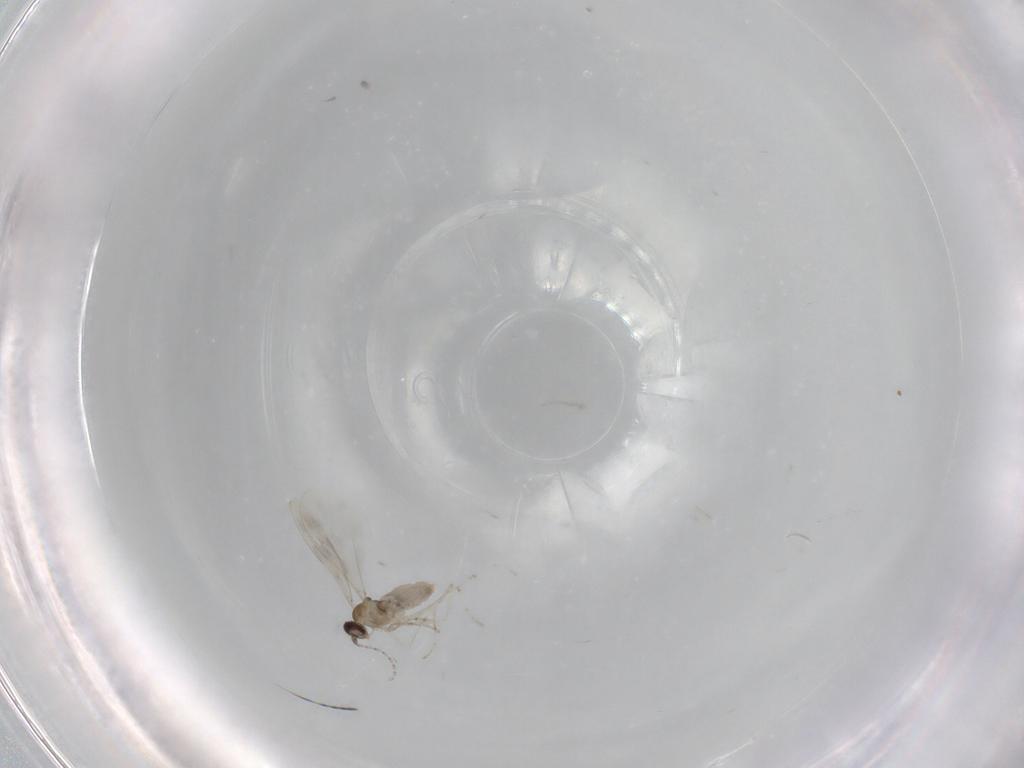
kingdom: Animalia
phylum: Arthropoda
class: Insecta
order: Diptera
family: Cecidomyiidae
